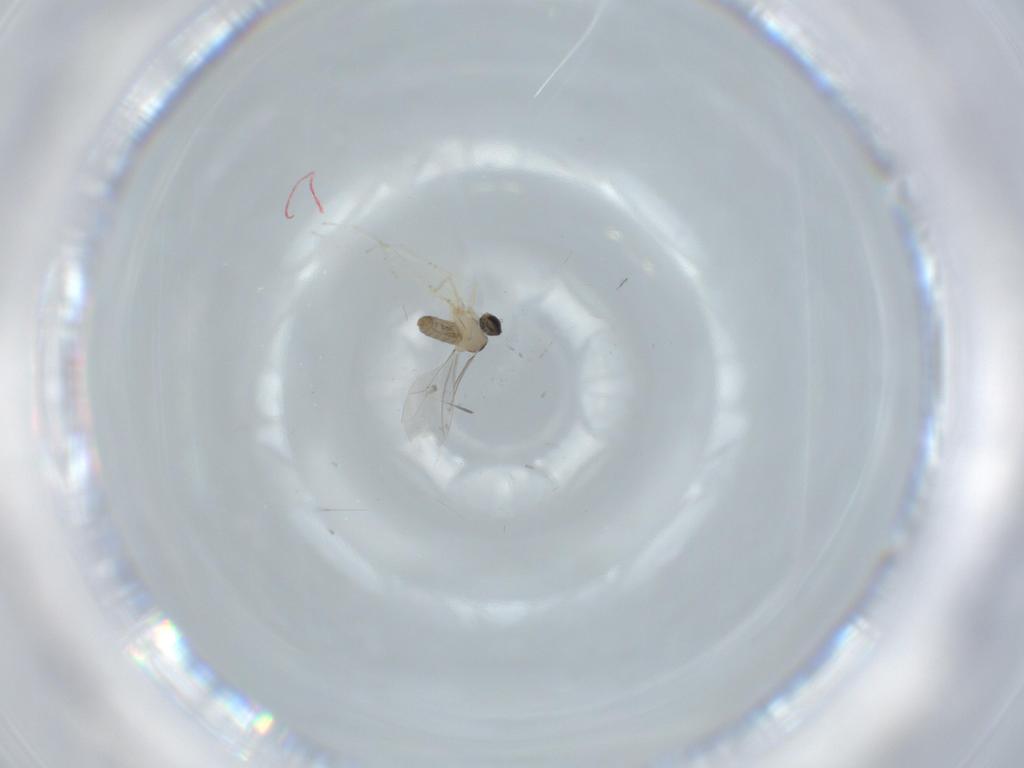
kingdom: Animalia
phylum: Arthropoda
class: Insecta
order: Diptera
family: Cecidomyiidae
